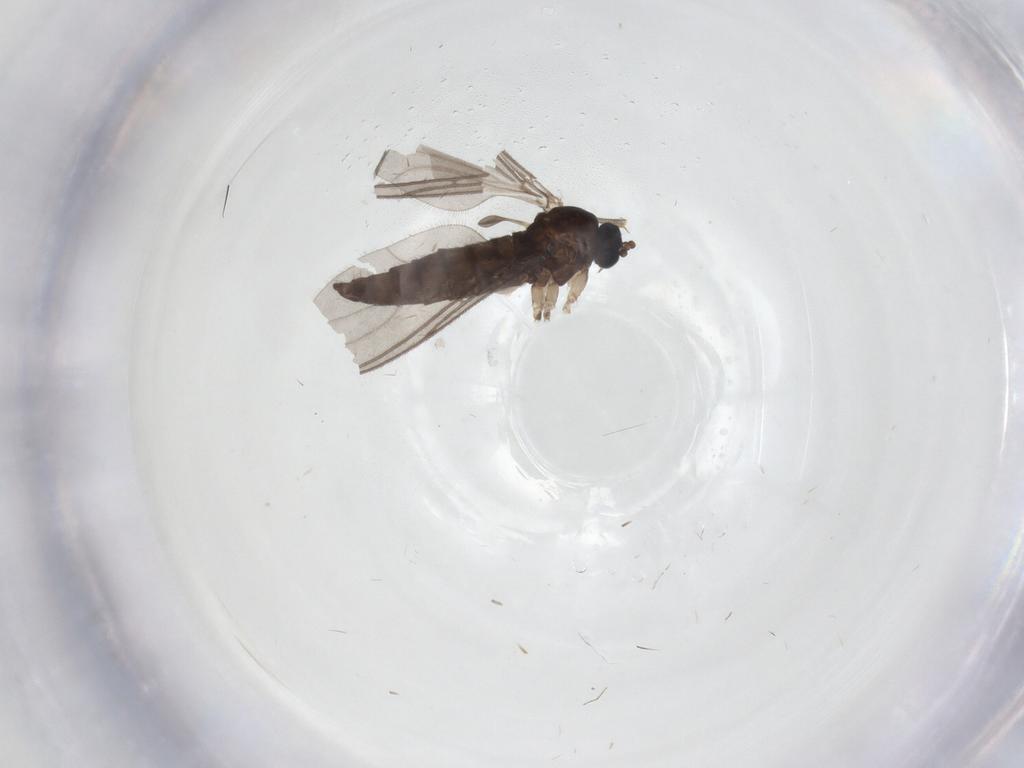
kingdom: Animalia
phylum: Arthropoda
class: Insecta
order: Diptera
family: Sciaridae
